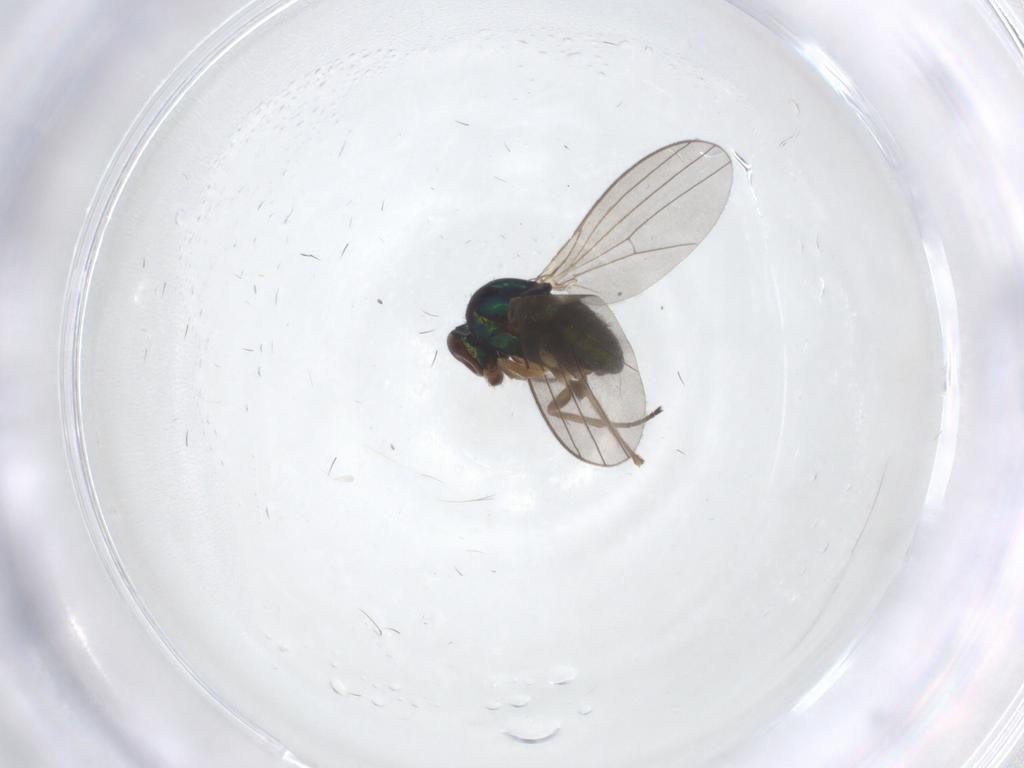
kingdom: Animalia
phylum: Arthropoda
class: Insecta
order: Diptera
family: Dolichopodidae
